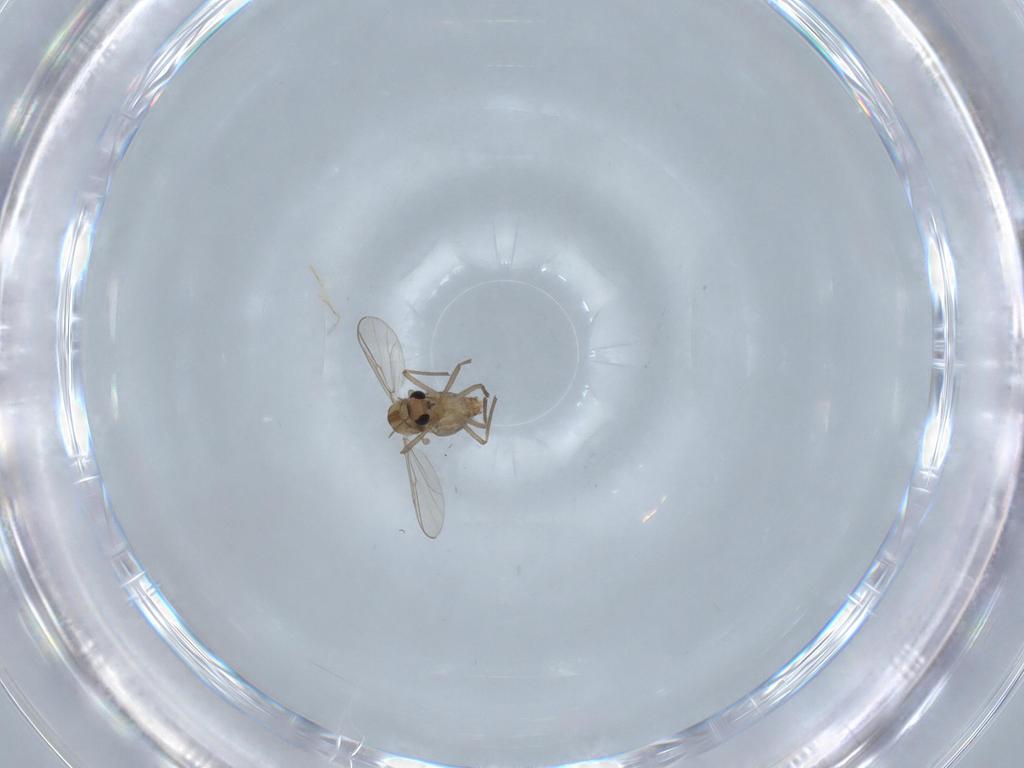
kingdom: Animalia
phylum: Arthropoda
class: Insecta
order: Diptera
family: Chironomidae
